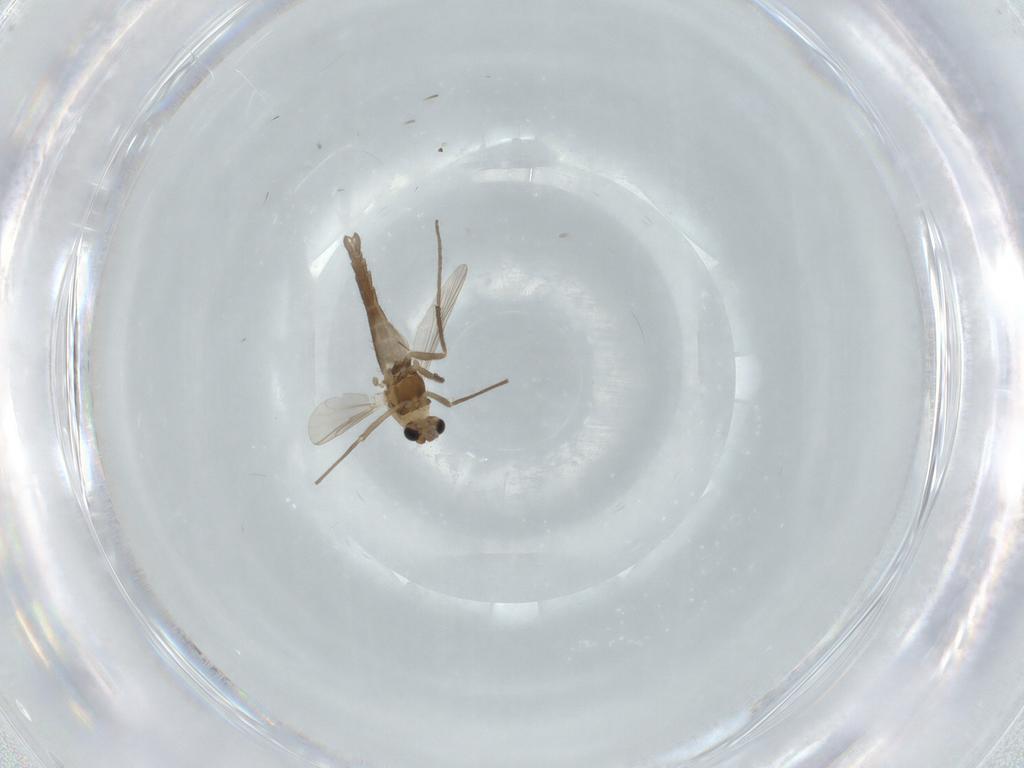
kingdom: Animalia
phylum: Arthropoda
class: Insecta
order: Diptera
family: Chironomidae
